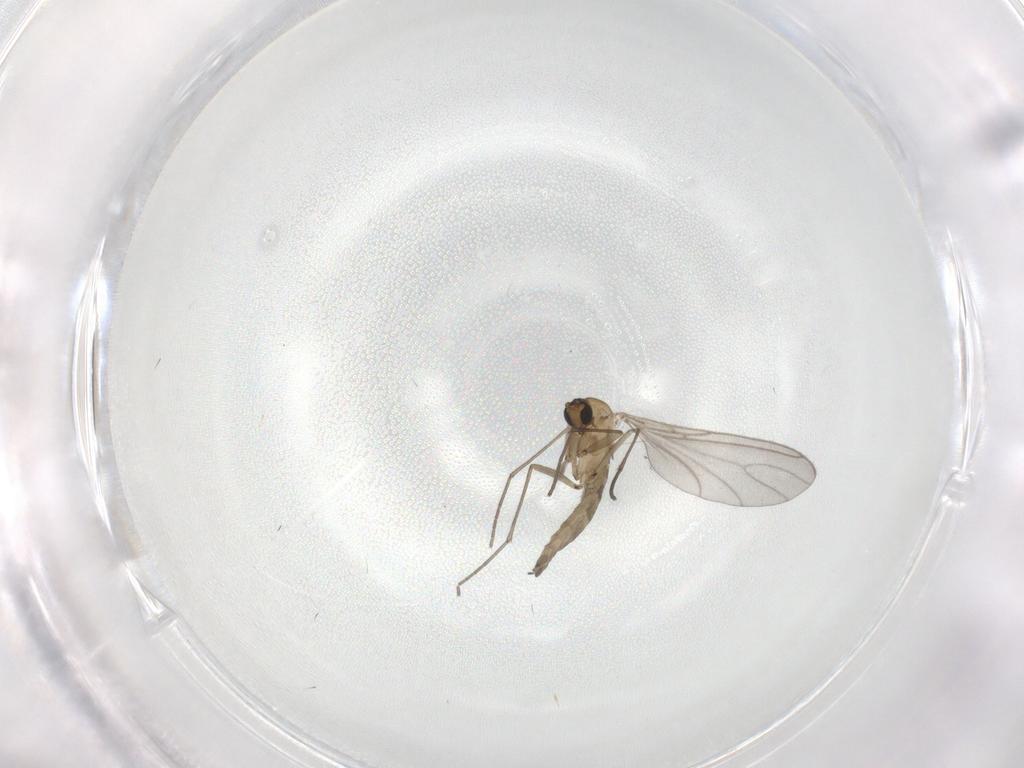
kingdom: Animalia
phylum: Arthropoda
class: Insecta
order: Diptera
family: Sciaridae
